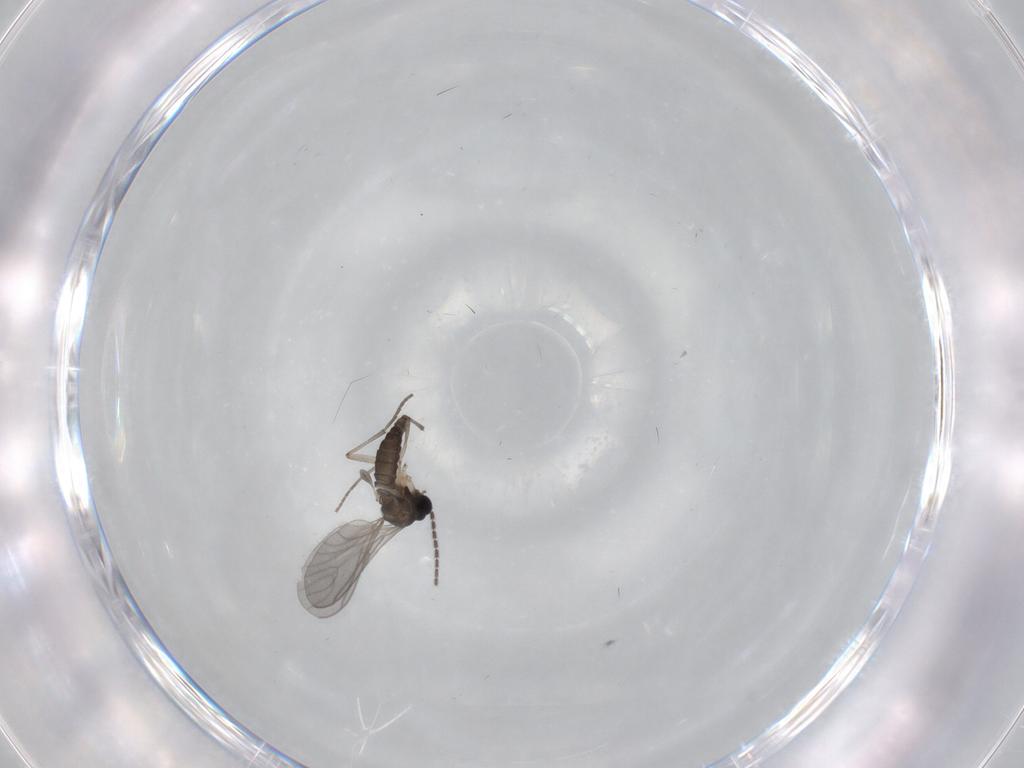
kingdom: Animalia
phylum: Arthropoda
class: Insecta
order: Diptera
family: Sciaridae
